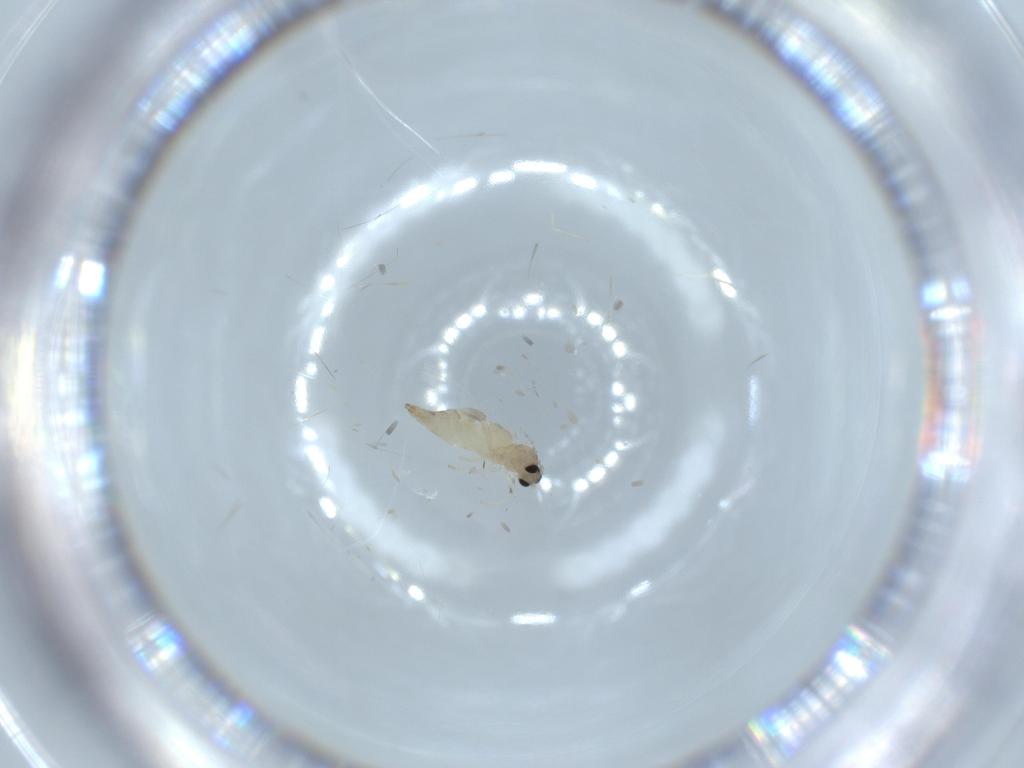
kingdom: Animalia
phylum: Arthropoda
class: Insecta
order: Diptera
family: Cecidomyiidae
